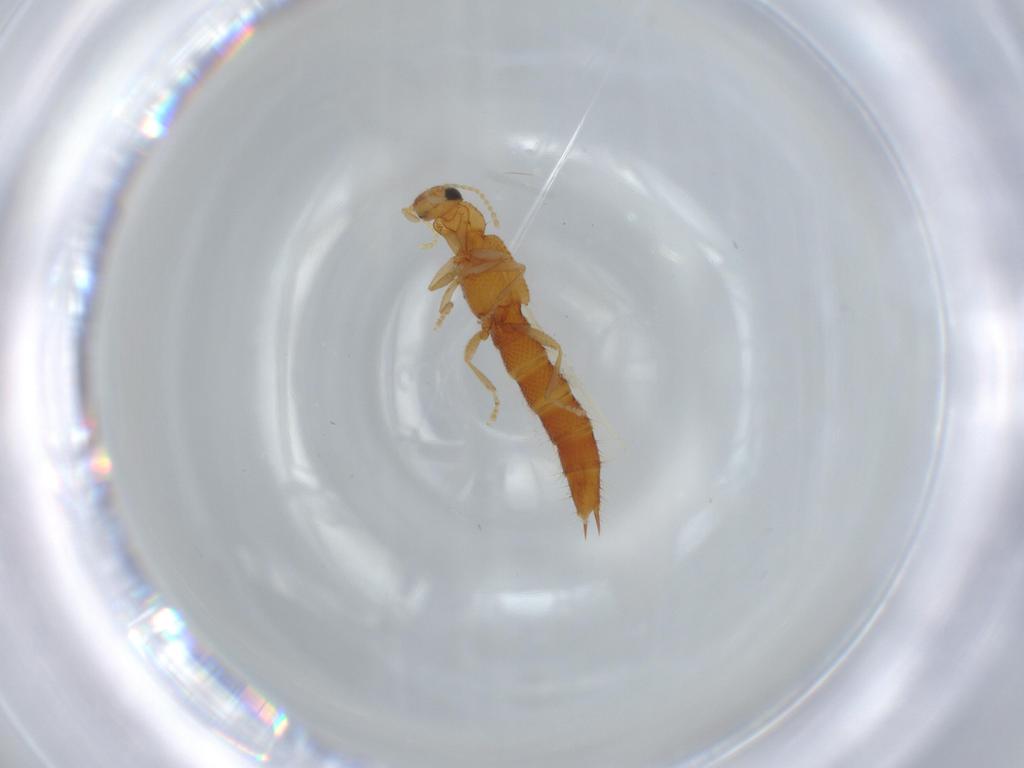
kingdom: Animalia
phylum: Arthropoda
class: Insecta
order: Coleoptera
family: Staphylinidae
